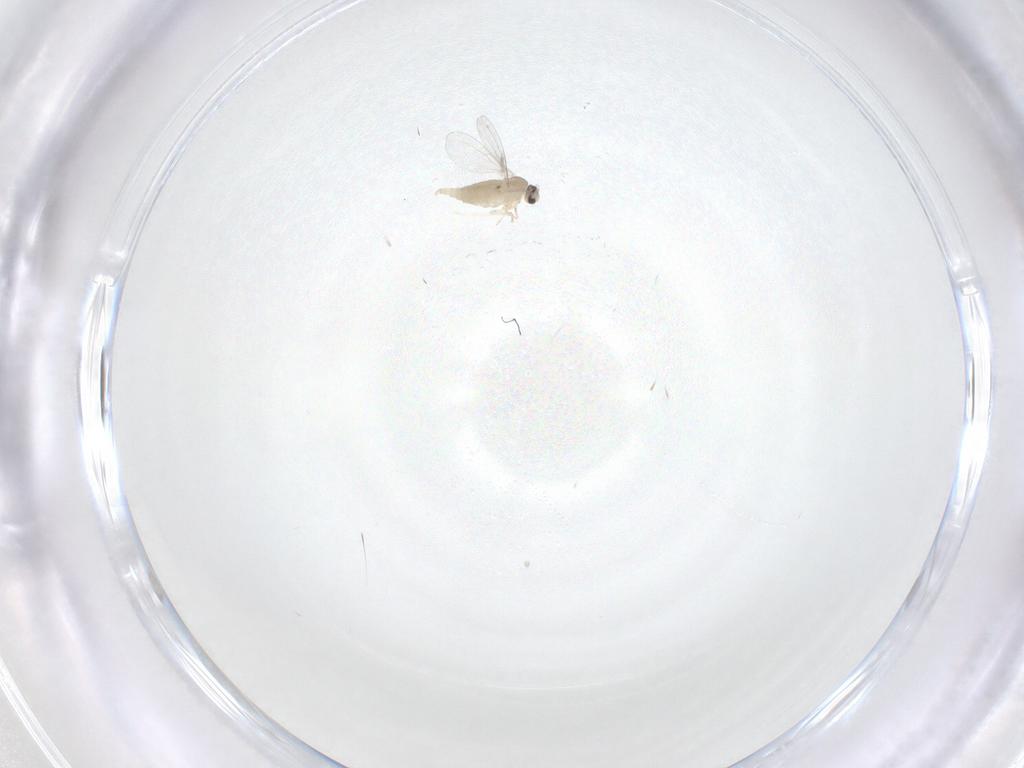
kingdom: Animalia
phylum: Arthropoda
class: Insecta
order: Diptera
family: Cecidomyiidae
